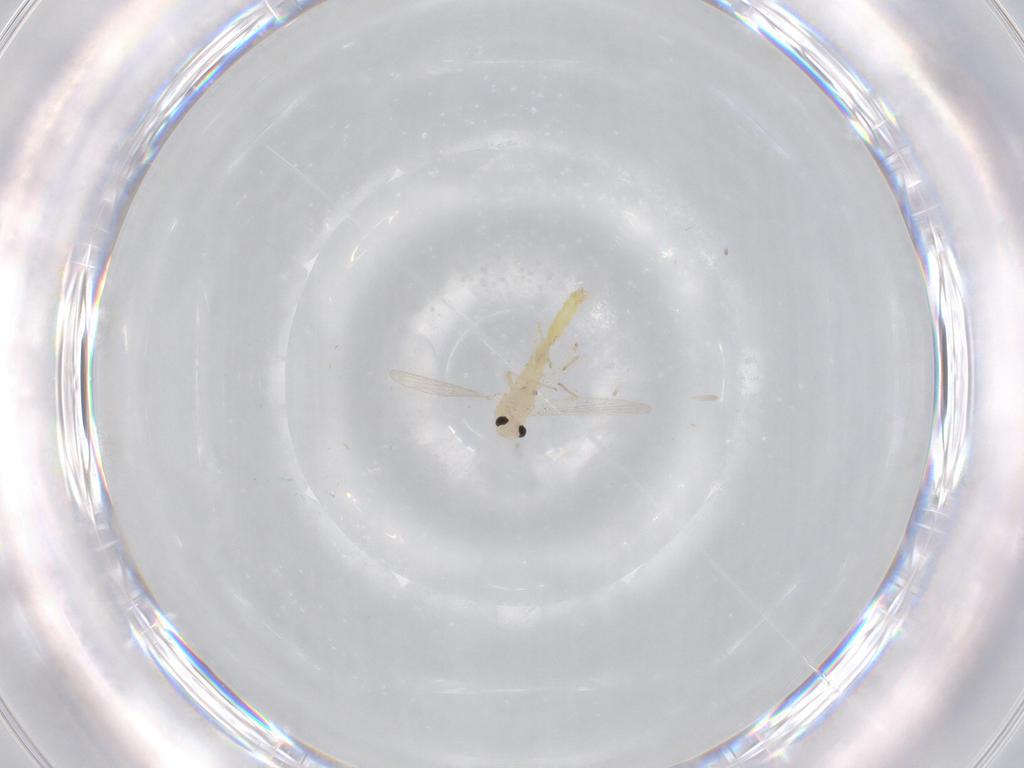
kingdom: Animalia
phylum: Arthropoda
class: Insecta
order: Diptera
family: Chironomidae
